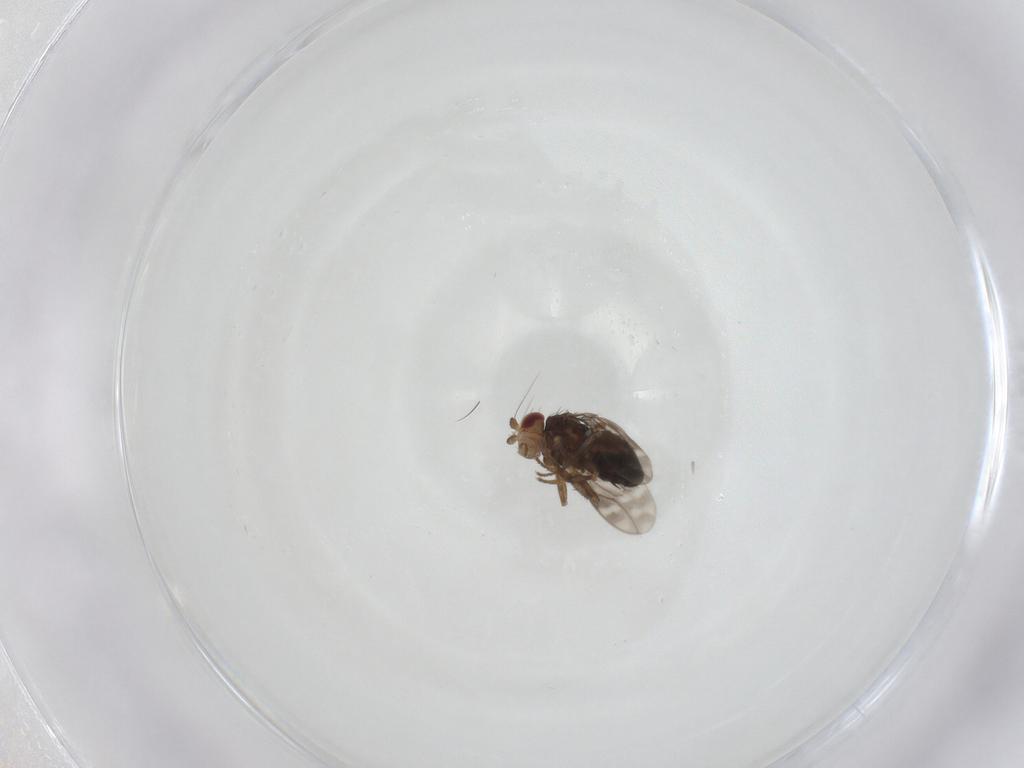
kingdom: Animalia
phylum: Arthropoda
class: Insecta
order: Diptera
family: Sphaeroceridae
